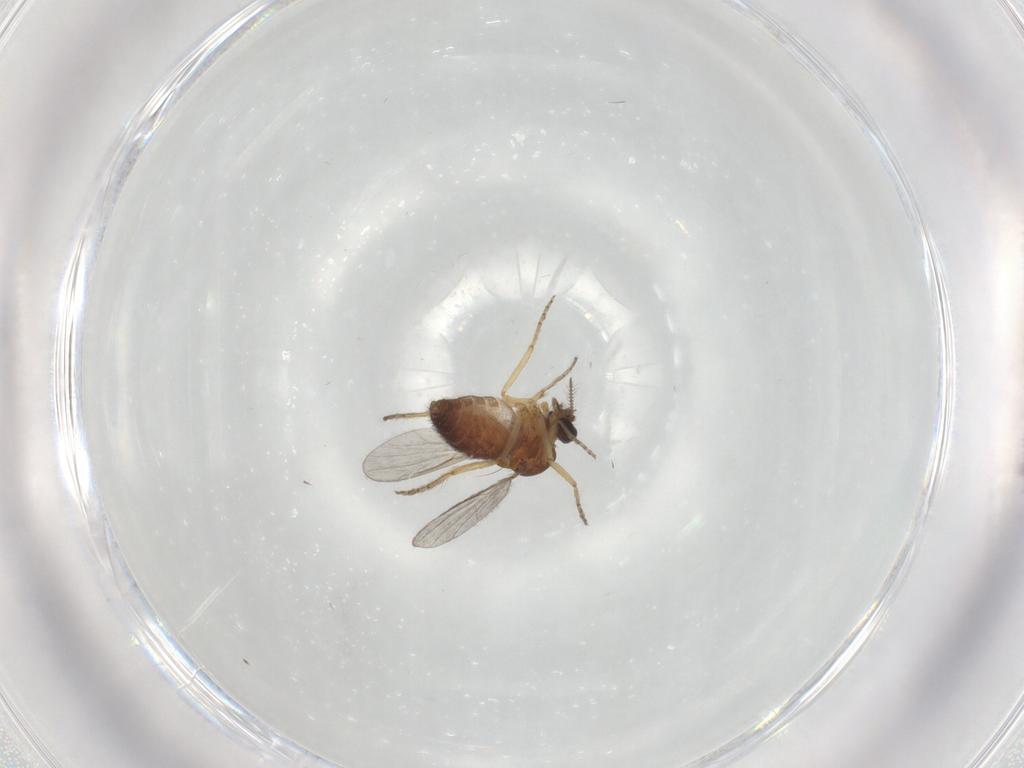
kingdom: Animalia
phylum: Arthropoda
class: Insecta
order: Diptera
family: Ceratopogonidae
